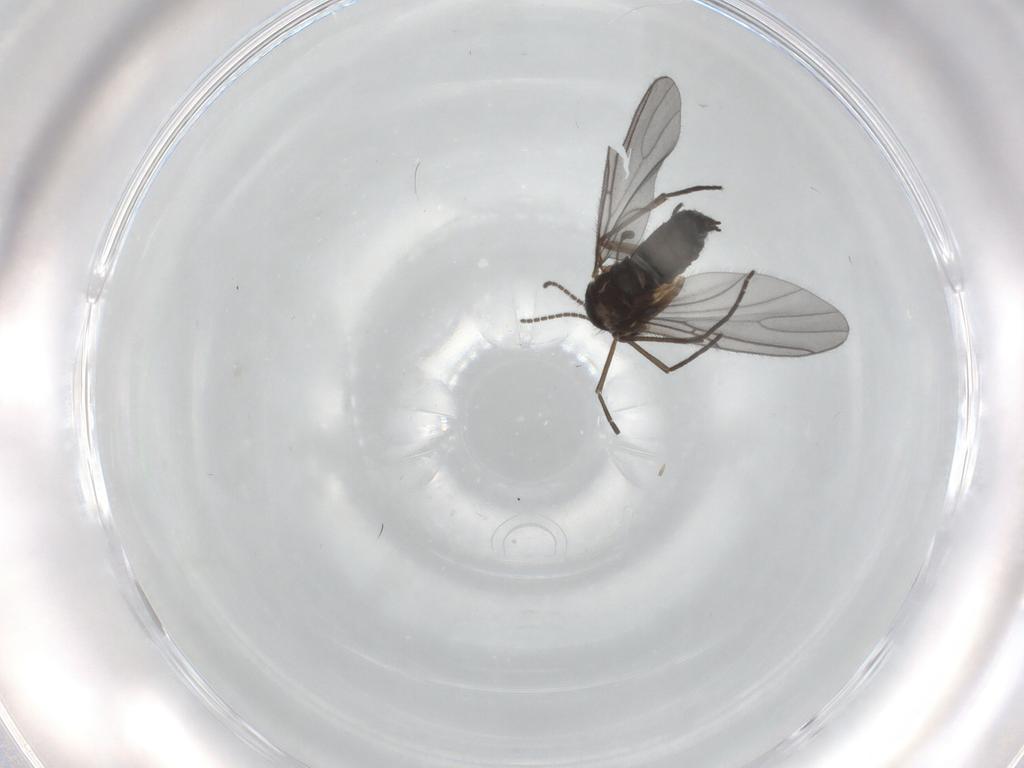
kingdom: Animalia
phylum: Arthropoda
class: Insecta
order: Diptera
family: Sciaridae
